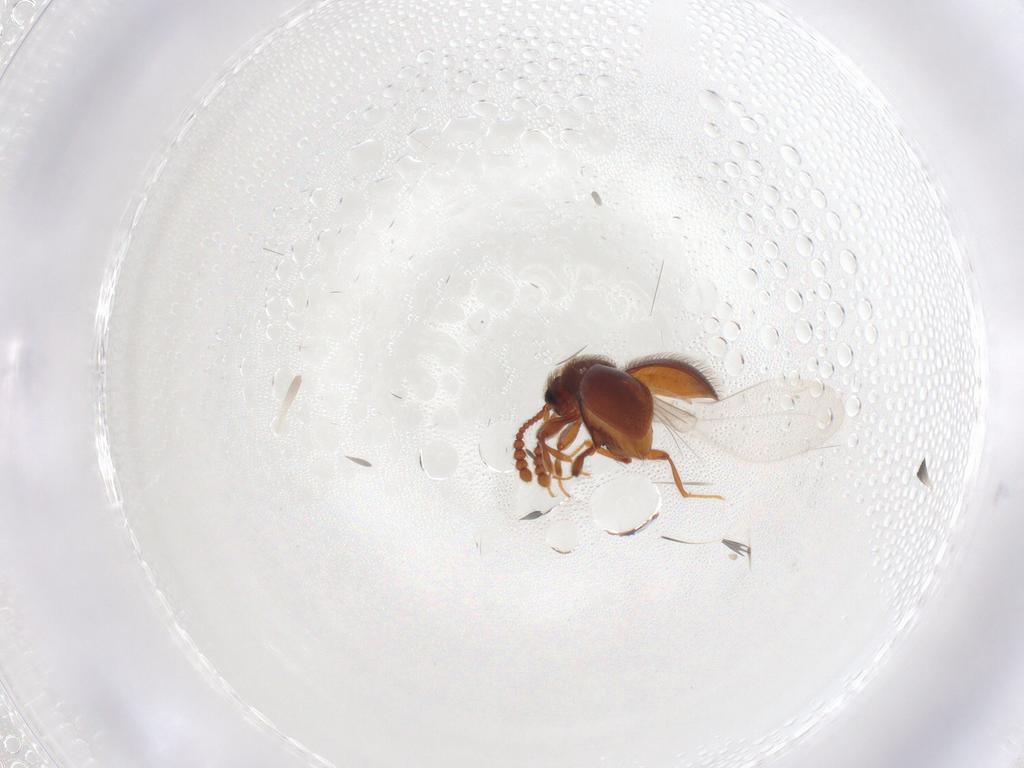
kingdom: Animalia
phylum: Arthropoda
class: Insecta
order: Coleoptera
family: Staphylinidae
